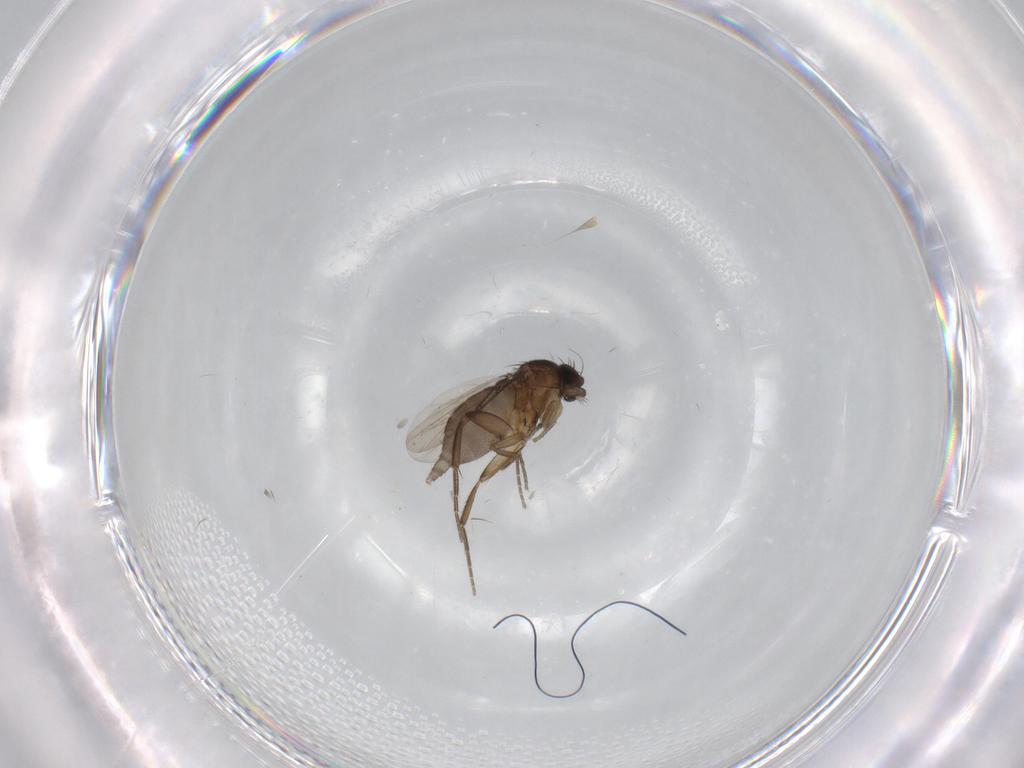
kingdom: Animalia
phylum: Arthropoda
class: Insecta
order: Diptera
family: Phoridae
